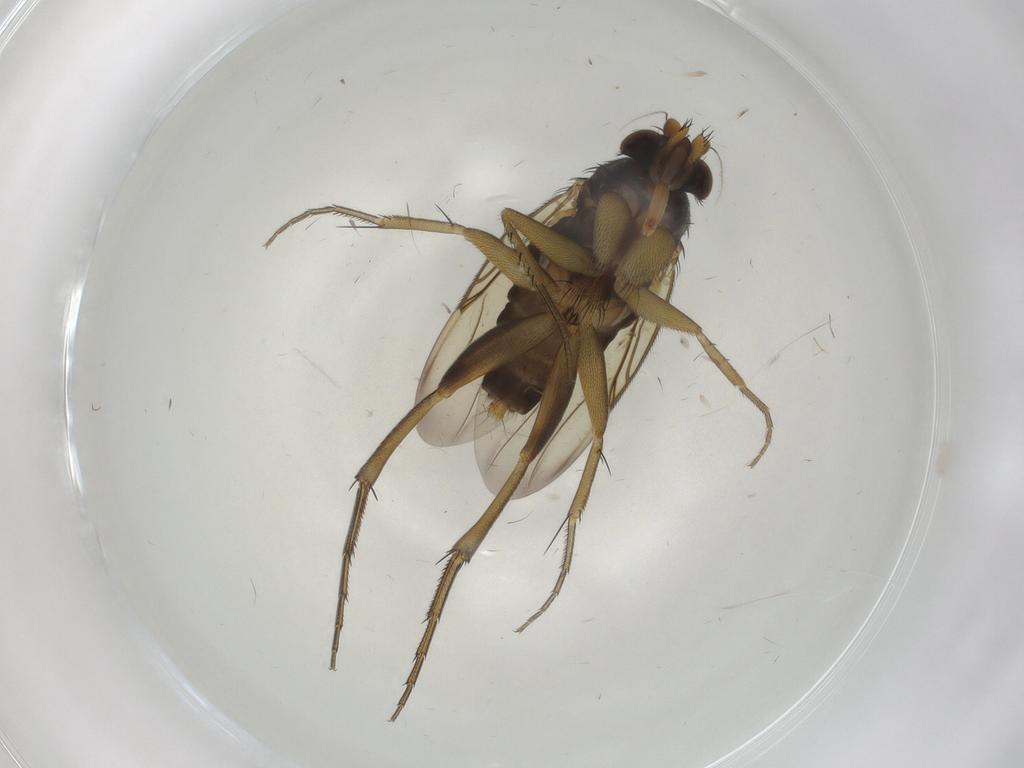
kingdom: Animalia
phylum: Arthropoda
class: Insecta
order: Diptera
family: Phoridae
